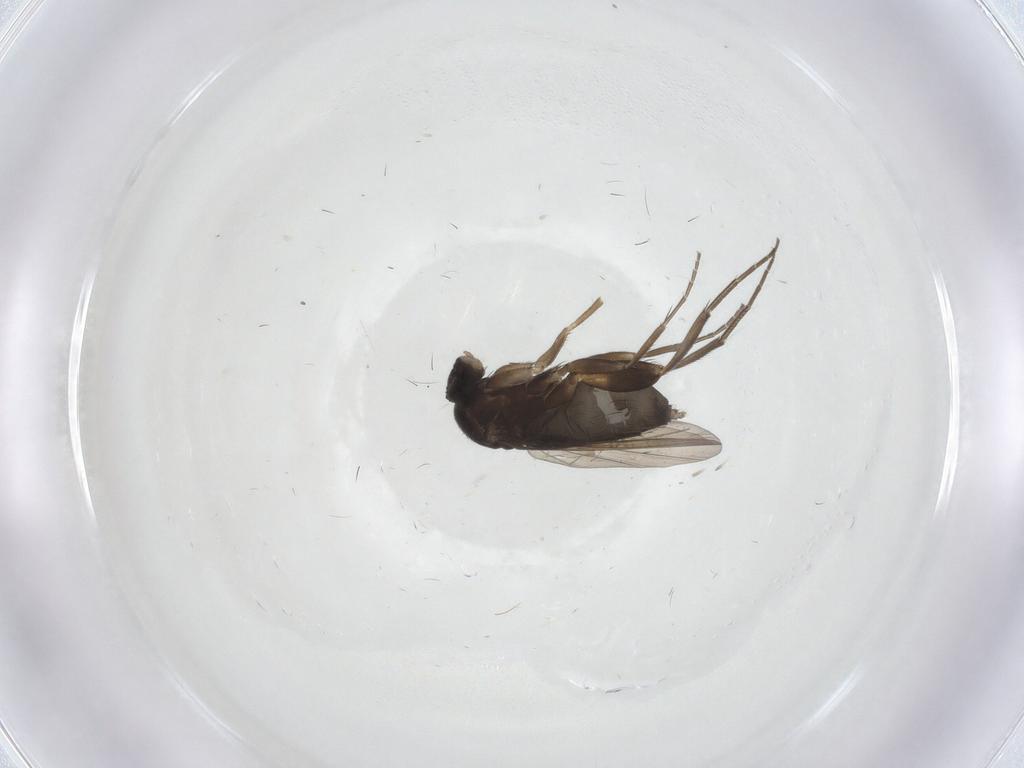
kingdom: Animalia
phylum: Arthropoda
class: Insecta
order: Diptera
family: Phoridae
